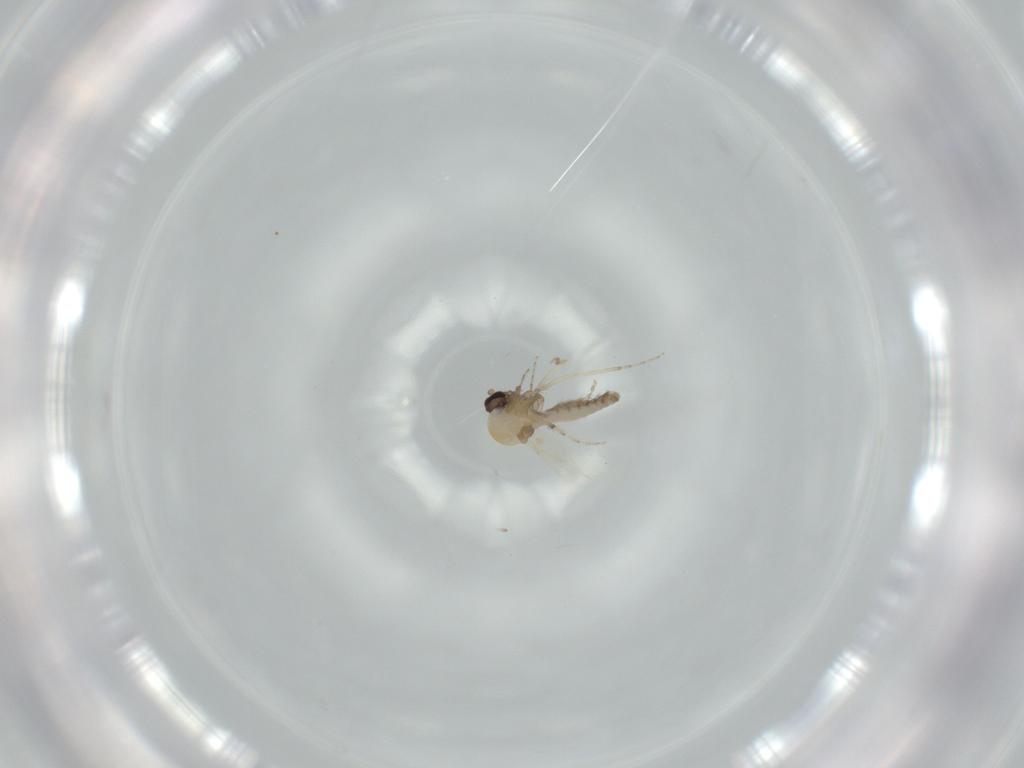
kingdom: Animalia
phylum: Arthropoda
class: Insecta
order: Diptera
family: Ceratopogonidae
